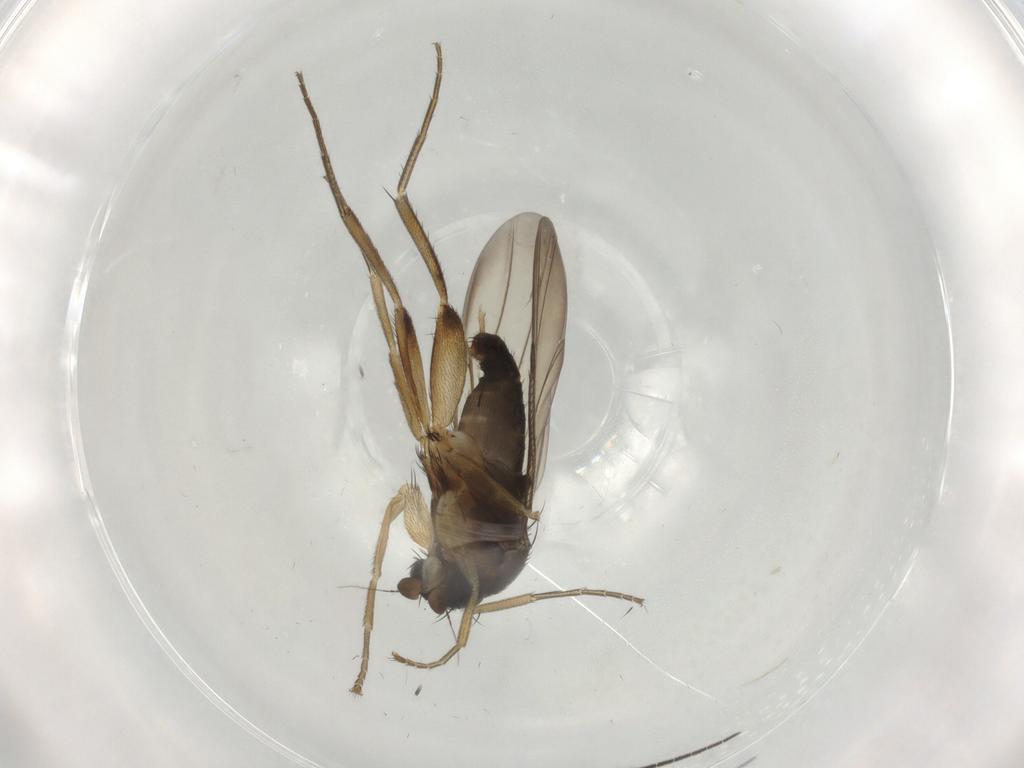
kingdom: Animalia
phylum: Arthropoda
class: Insecta
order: Diptera
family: Sciaridae
